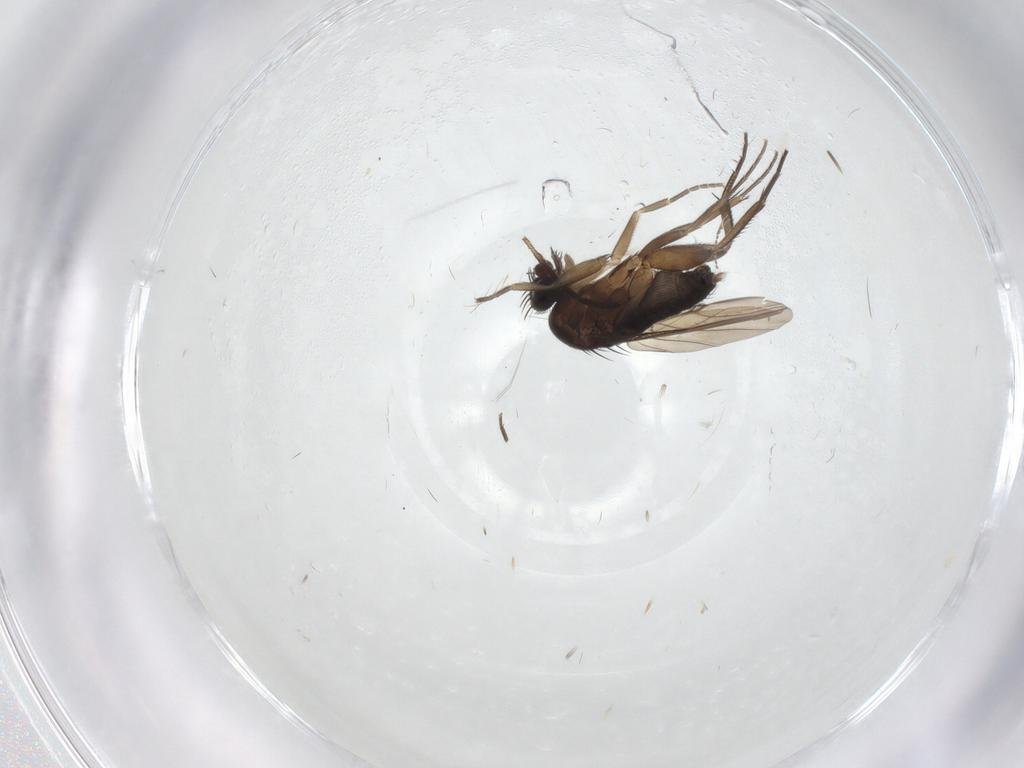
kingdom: Animalia
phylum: Arthropoda
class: Insecta
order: Diptera
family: Phoridae
